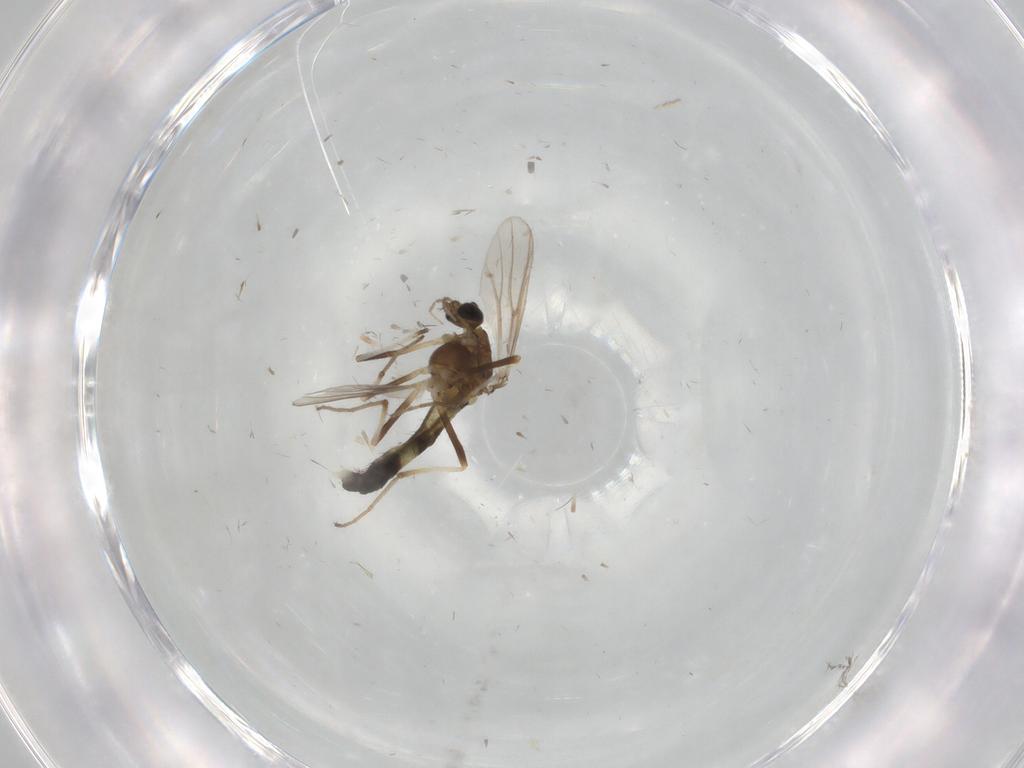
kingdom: Animalia
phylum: Arthropoda
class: Insecta
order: Diptera
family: Chironomidae
